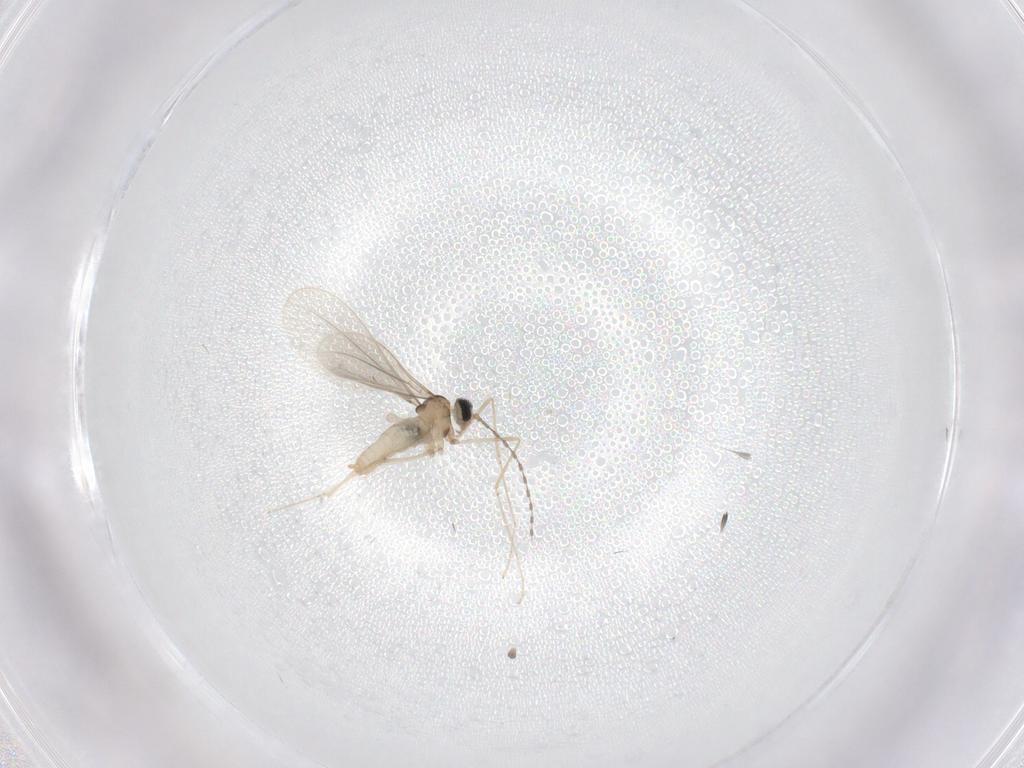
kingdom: Animalia
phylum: Arthropoda
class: Insecta
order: Diptera
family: Cecidomyiidae
